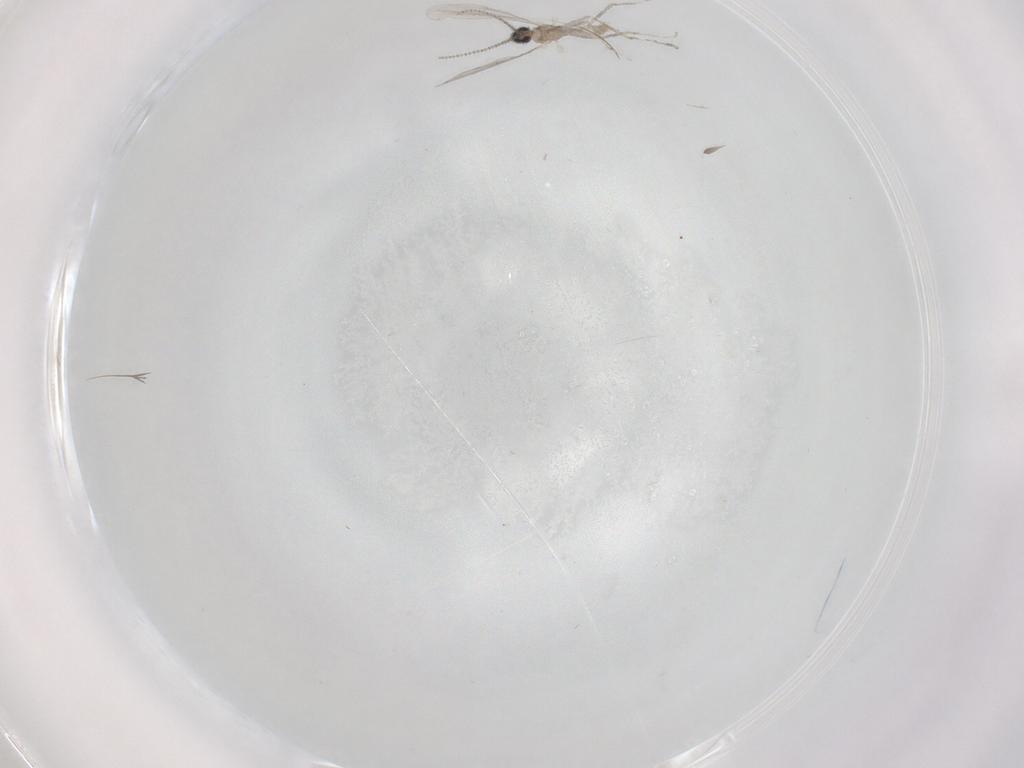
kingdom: Animalia
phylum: Arthropoda
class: Insecta
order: Diptera
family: Cecidomyiidae
